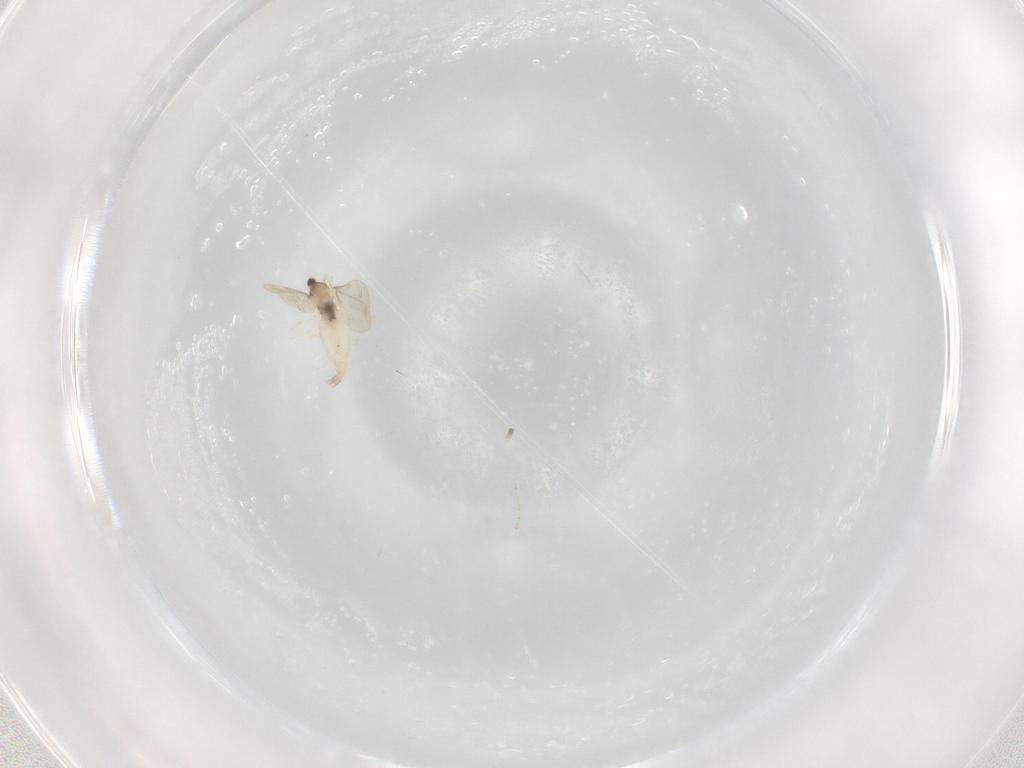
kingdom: Animalia
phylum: Arthropoda
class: Insecta
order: Diptera
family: Cecidomyiidae
